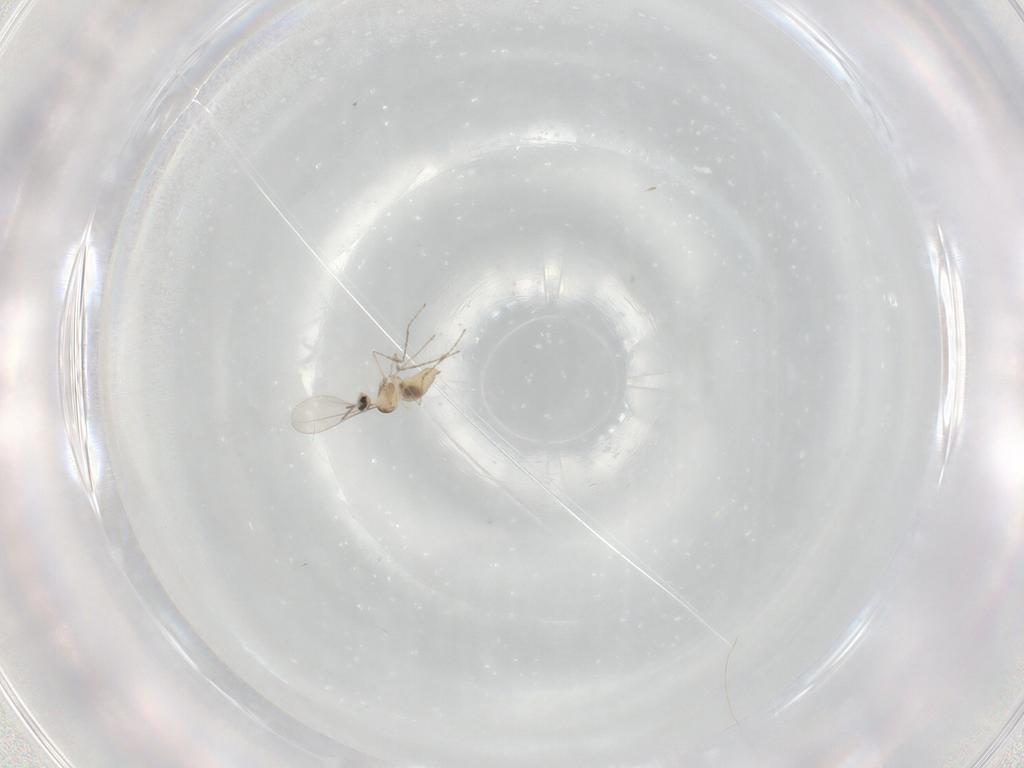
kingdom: Animalia
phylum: Arthropoda
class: Insecta
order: Diptera
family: Cecidomyiidae
